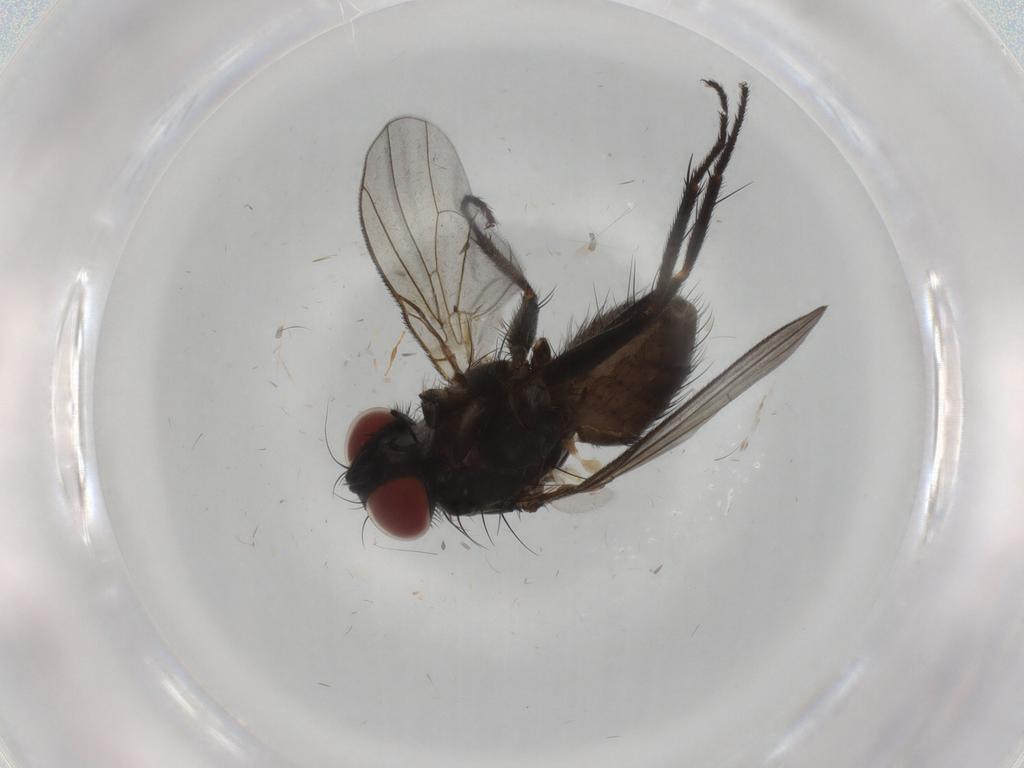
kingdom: Animalia
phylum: Arthropoda
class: Insecta
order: Diptera
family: Muscidae
